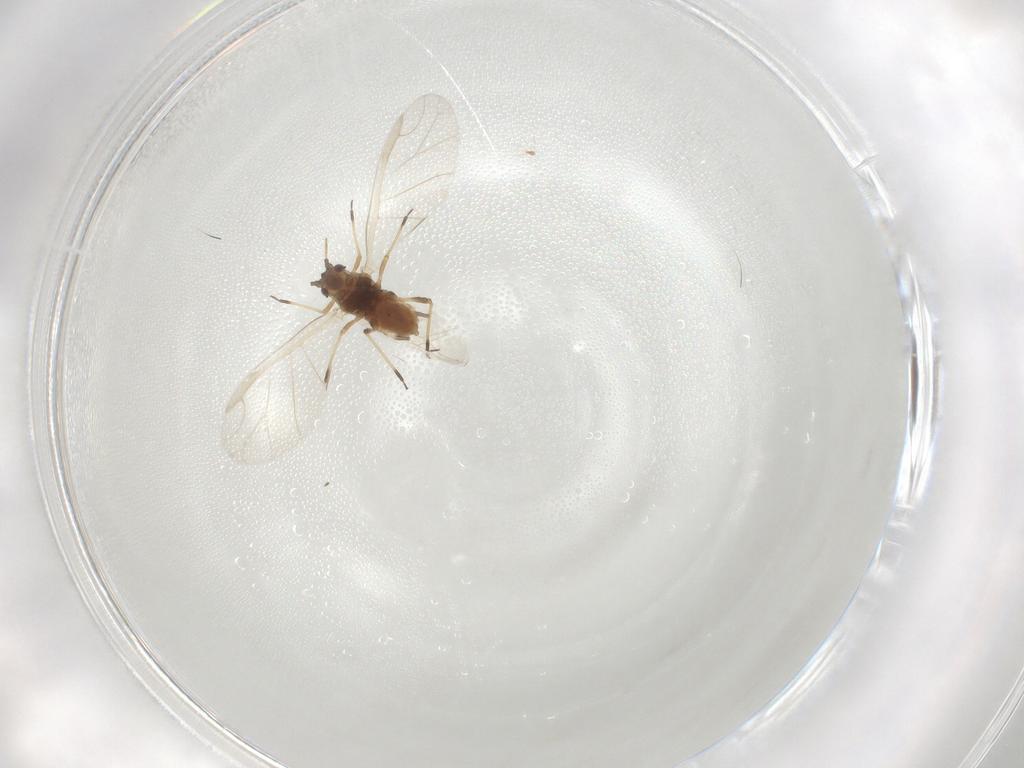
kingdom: Animalia
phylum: Arthropoda
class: Insecta
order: Hemiptera
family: Aphididae
